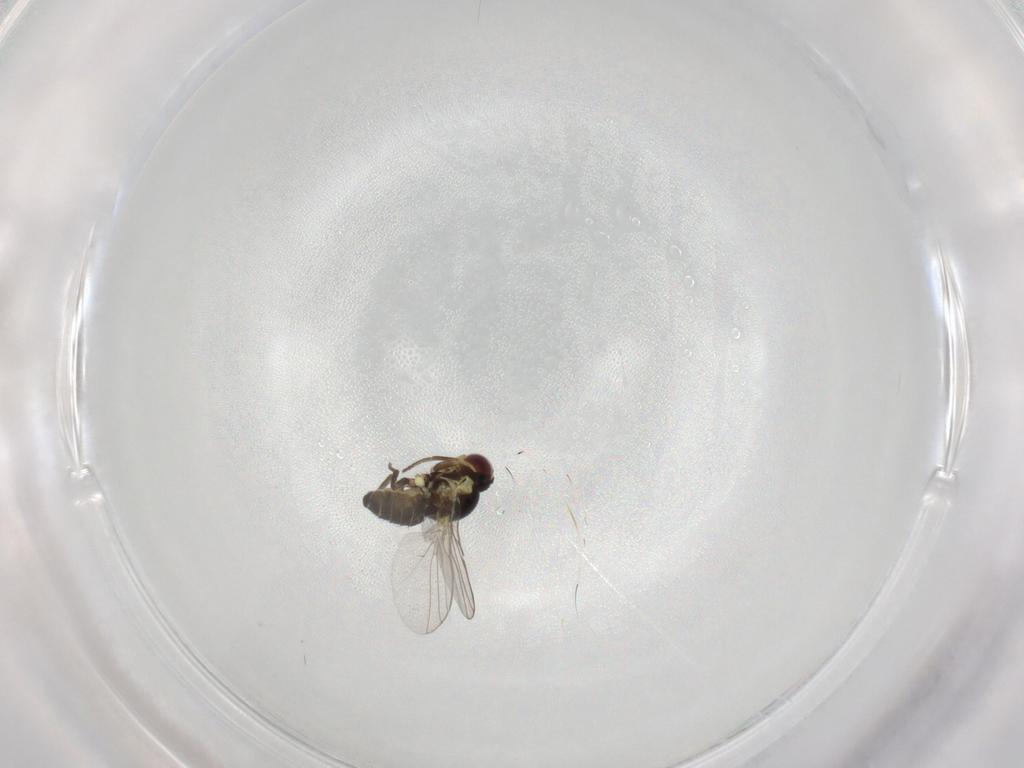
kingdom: Animalia
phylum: Arthropoda
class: Insecta
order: Diptera
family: Agromyzidae
